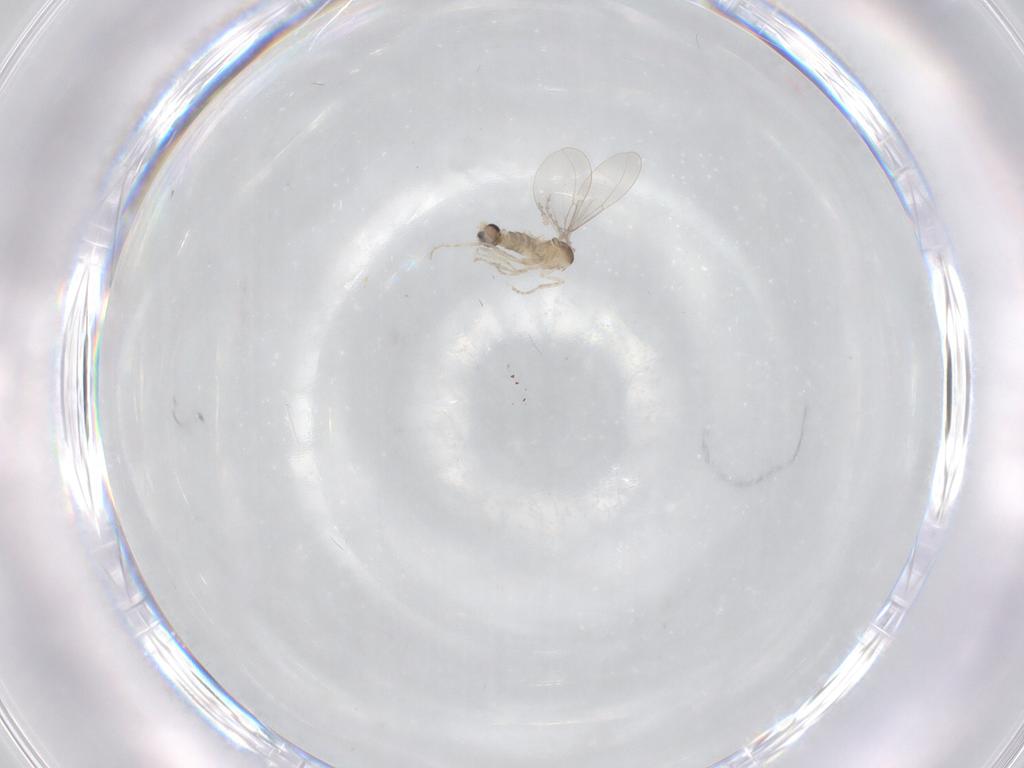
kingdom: Animalia
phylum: Arthropoda
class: Insecta
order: Diptera
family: Cecidomyiidae
